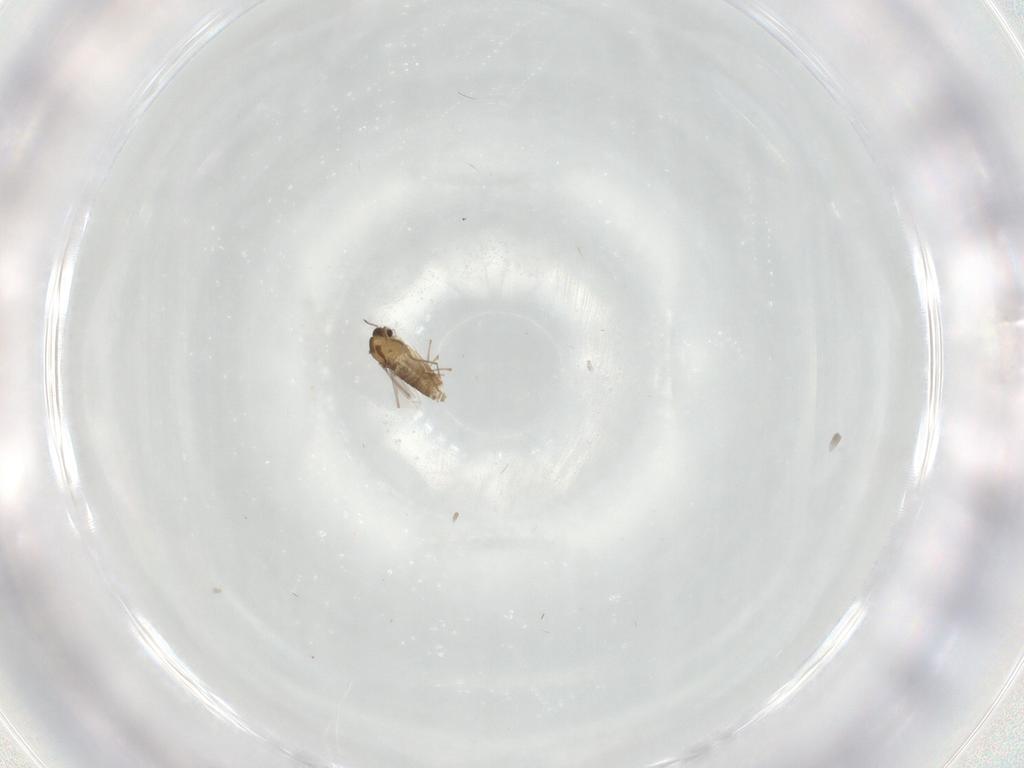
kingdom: Animalia
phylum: Arthropoda
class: Insecta
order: Diptera
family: Chironomidae
